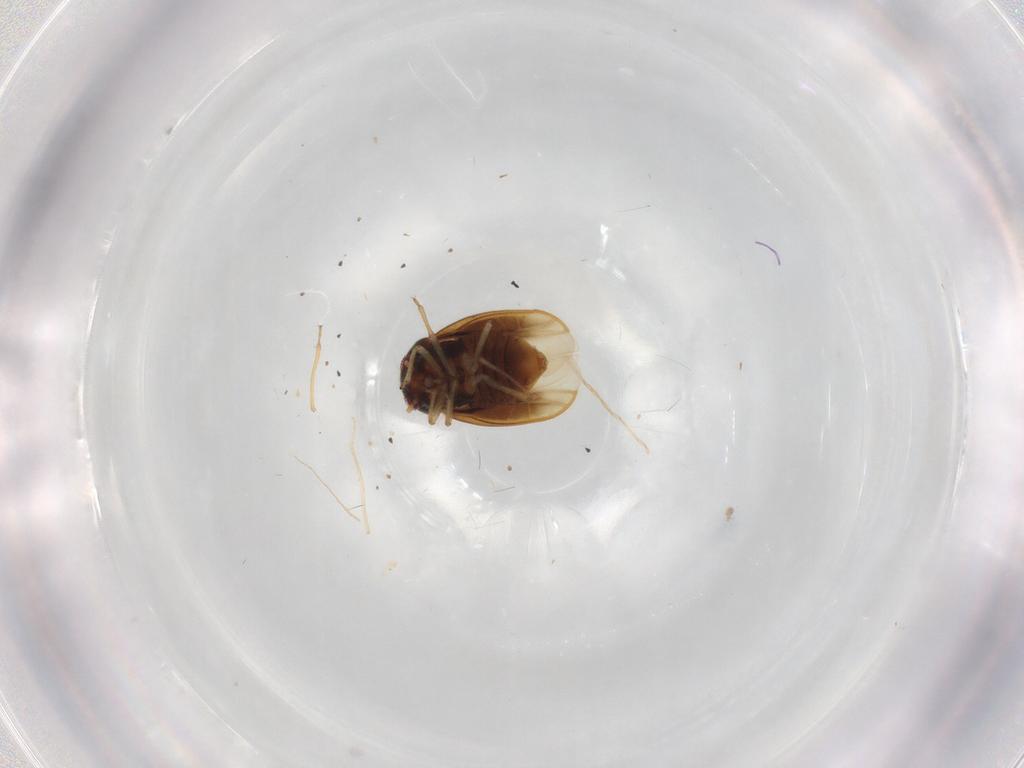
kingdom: Animalia
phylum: Arthropoda
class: Insecta
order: Hemiptera
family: Schizopteridae
